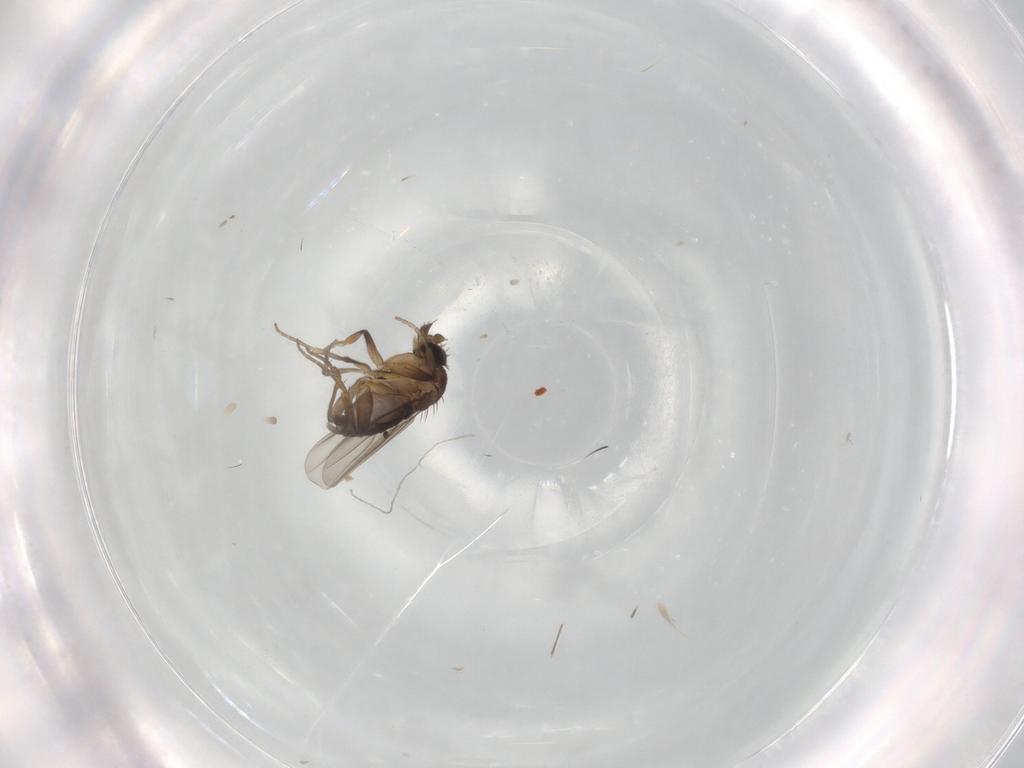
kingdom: Animalia
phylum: Arthropoda
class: Insecta
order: Diptera
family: Phoridae
